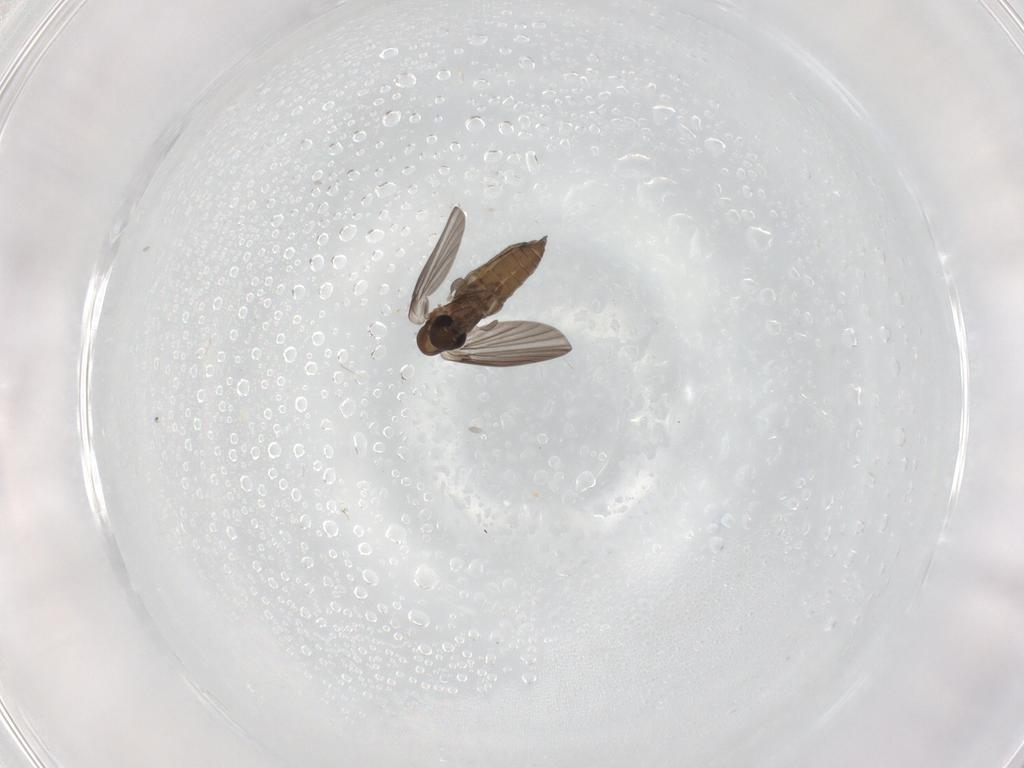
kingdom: Animalia
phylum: Arthropoda
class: Insecta
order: Diptera
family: Psychodidae
